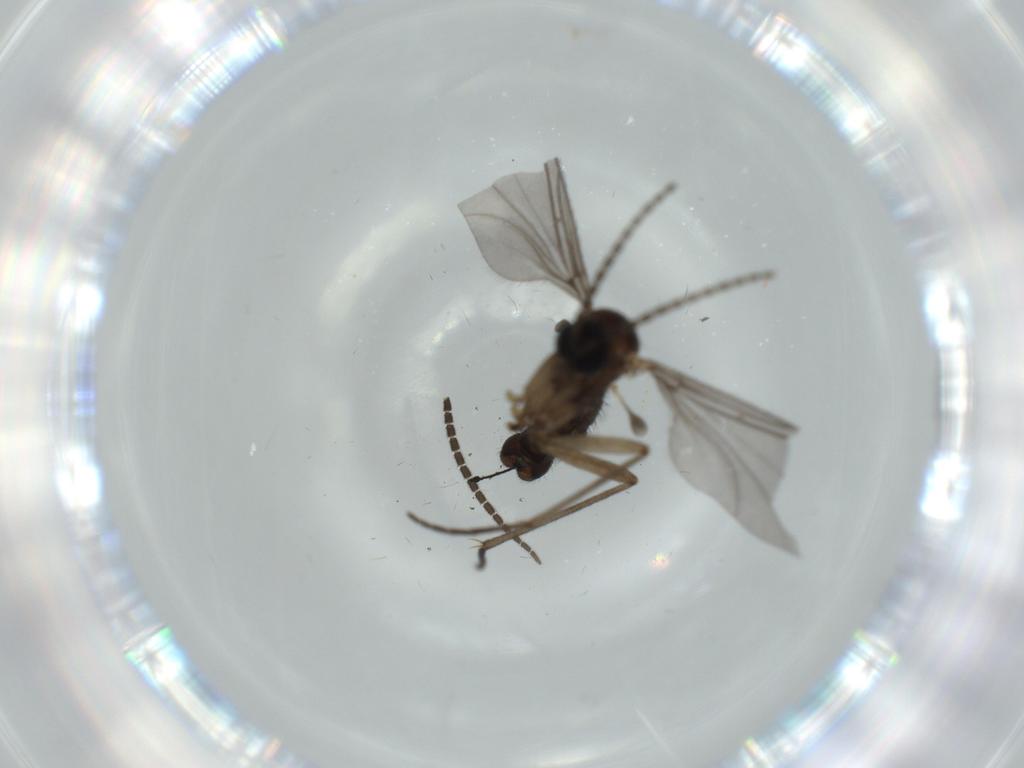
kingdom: Animalia
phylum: Arthropoda
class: Insecta
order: Diptera
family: Sciaridae
